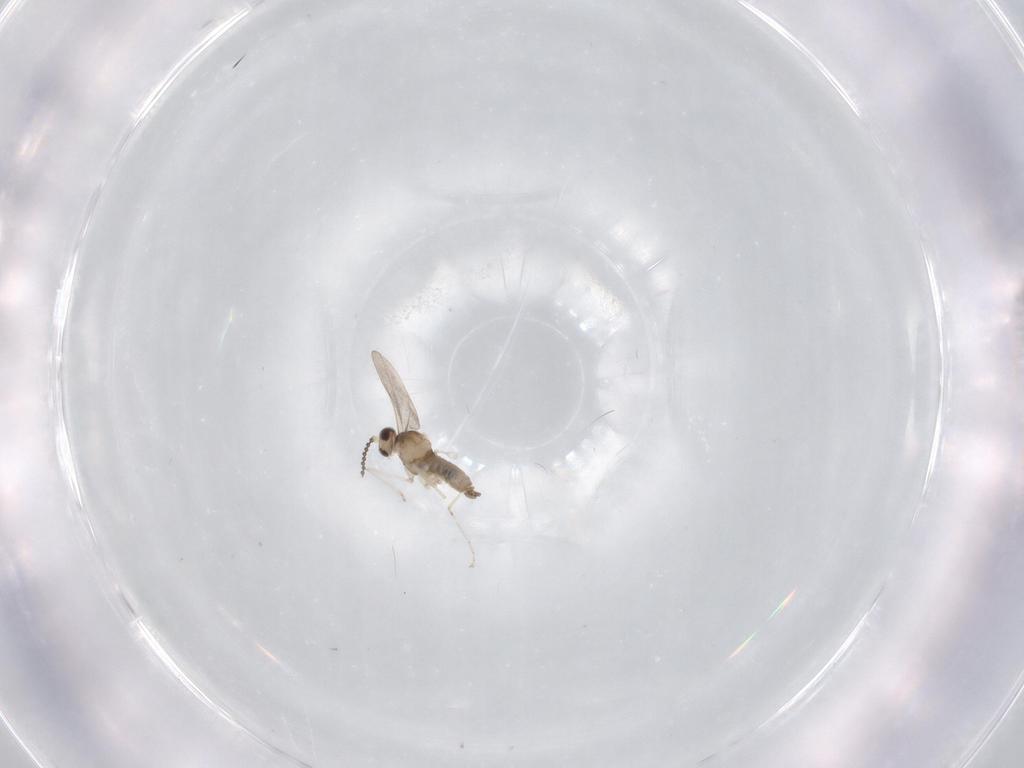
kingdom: Animalia
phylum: Arthropoda
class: Insecta
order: Diptera
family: Cecidomyiidae
